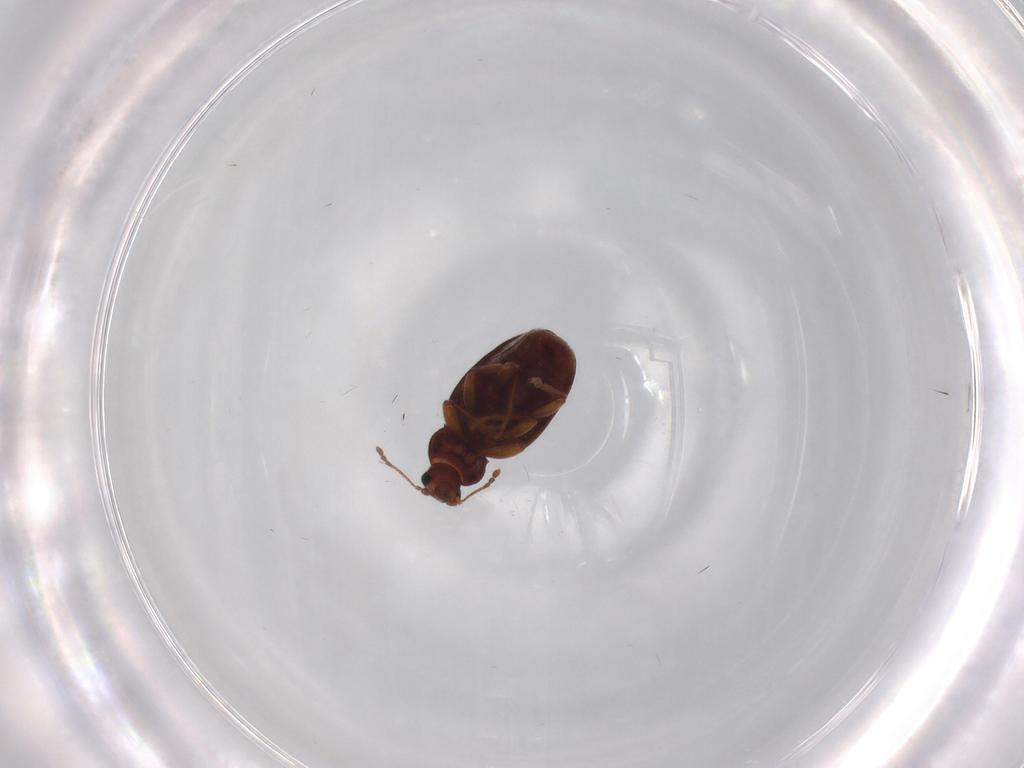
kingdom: Animalia
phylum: Arthropoda
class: Insecta
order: Coleoptera
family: Latridiidae
